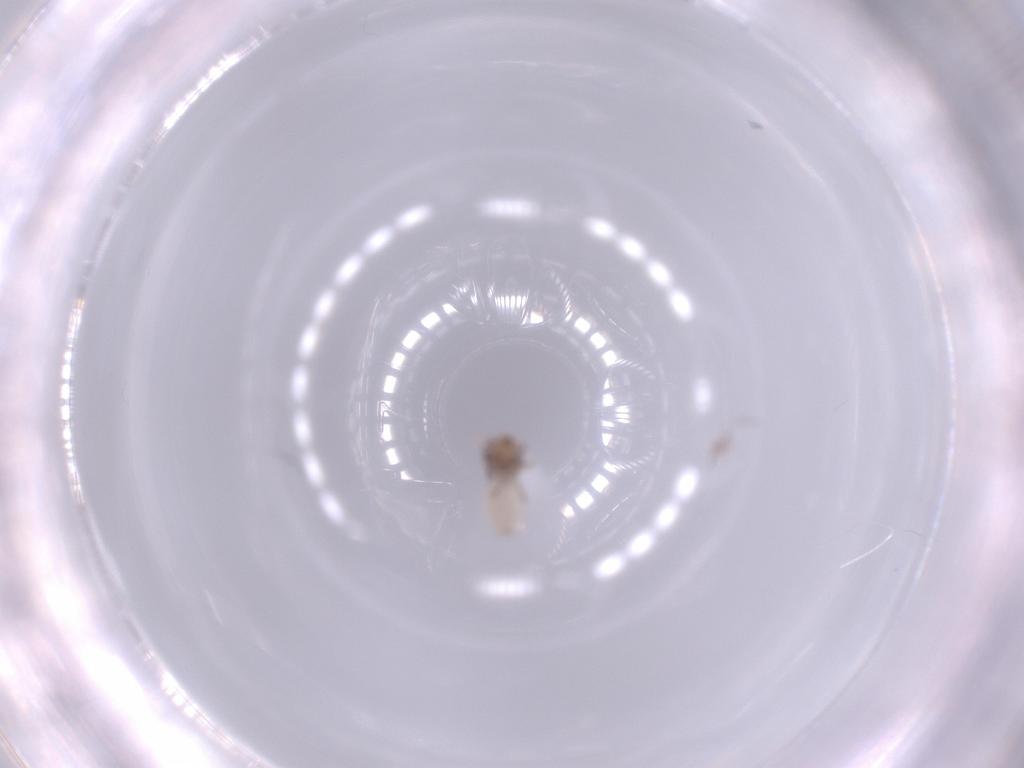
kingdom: Animalia
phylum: Arthropoda
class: Insecta
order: Psocodea
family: Lepidopsocidae
